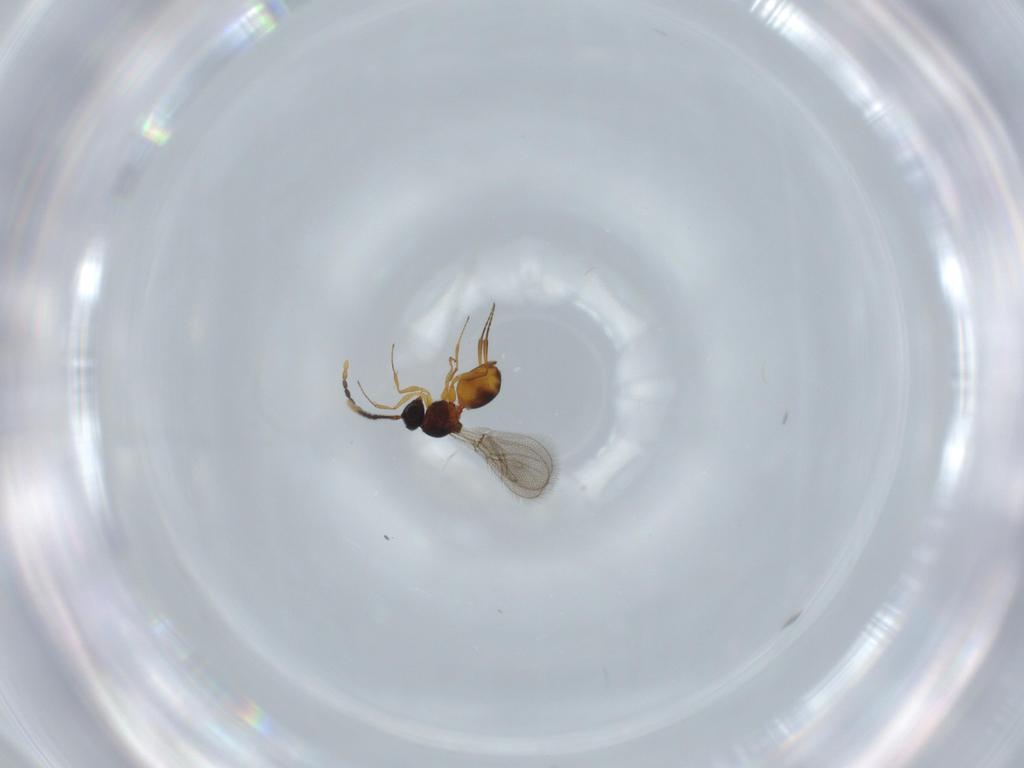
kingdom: Animalia
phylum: Arthropoda
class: Insecta
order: Hymenoptera
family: Figitidae
